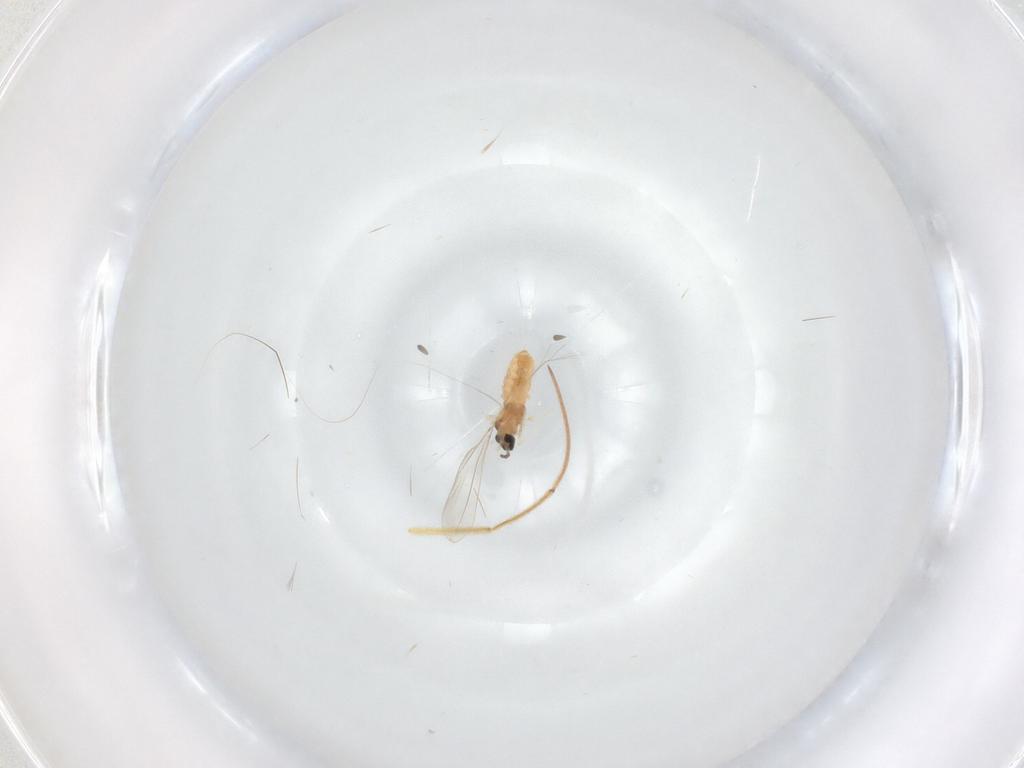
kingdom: Animalia
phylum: Arthropoda
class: Insecta
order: Diptera
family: Cecidomyiidae
